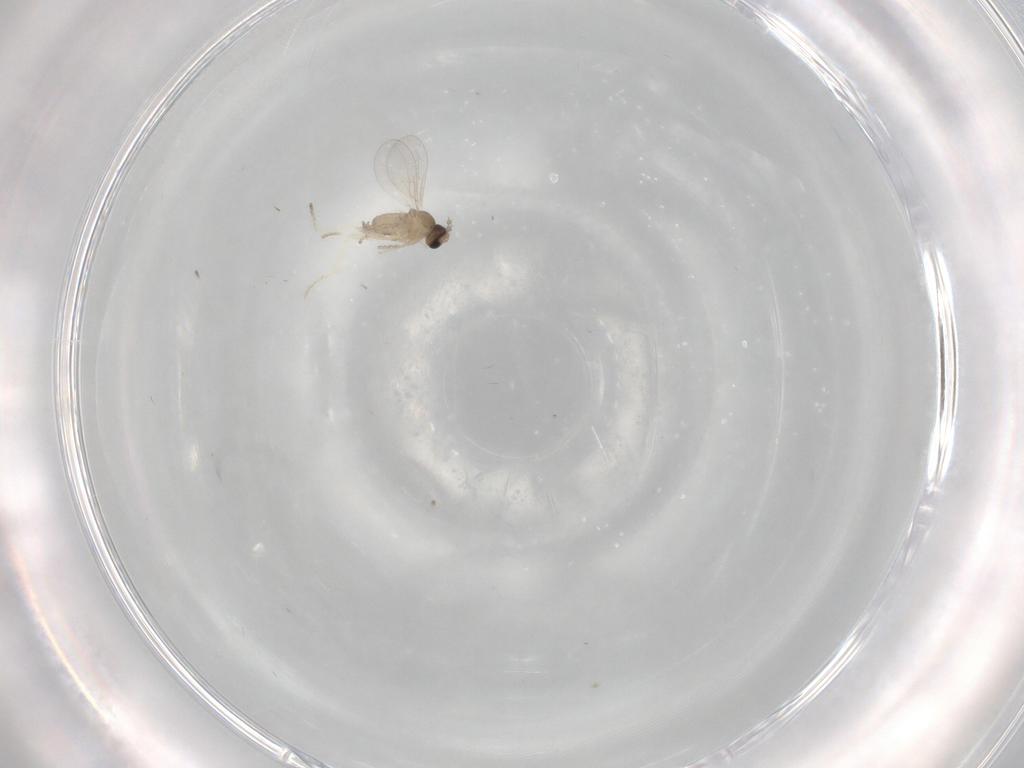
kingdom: Animalia
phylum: Arthropoda
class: Insecta
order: Diptera
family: Cecidomyiidae
